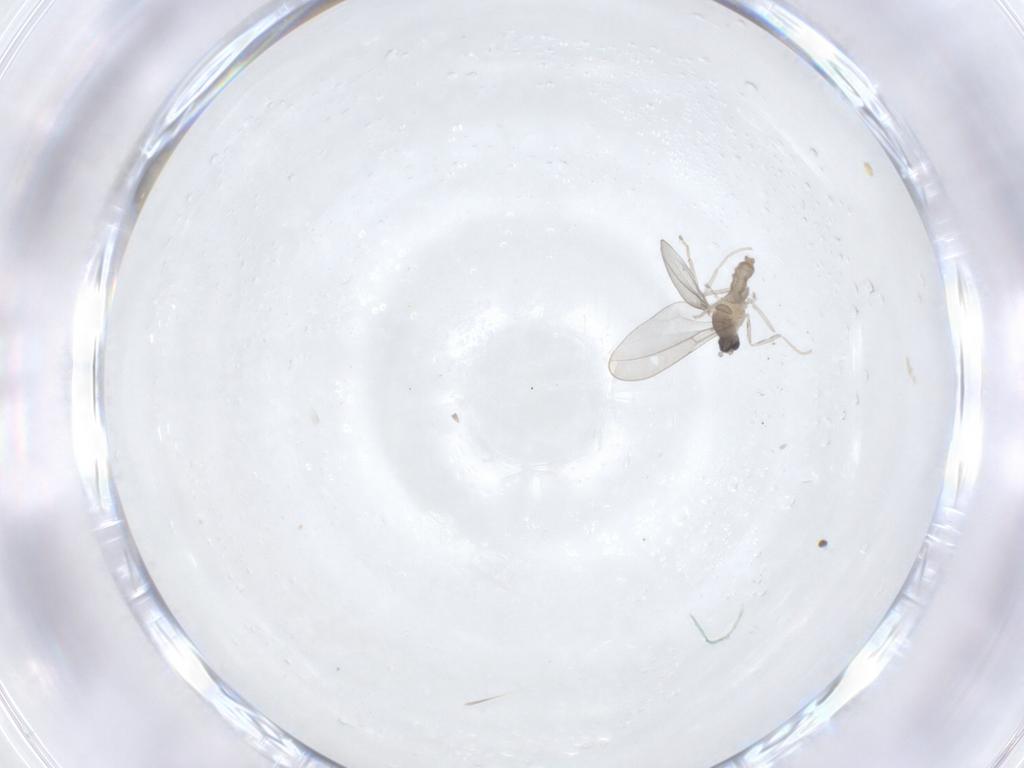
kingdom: Animalia
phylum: Arthropoda
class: Insecta
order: Diptera
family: Cecidomyiidae
